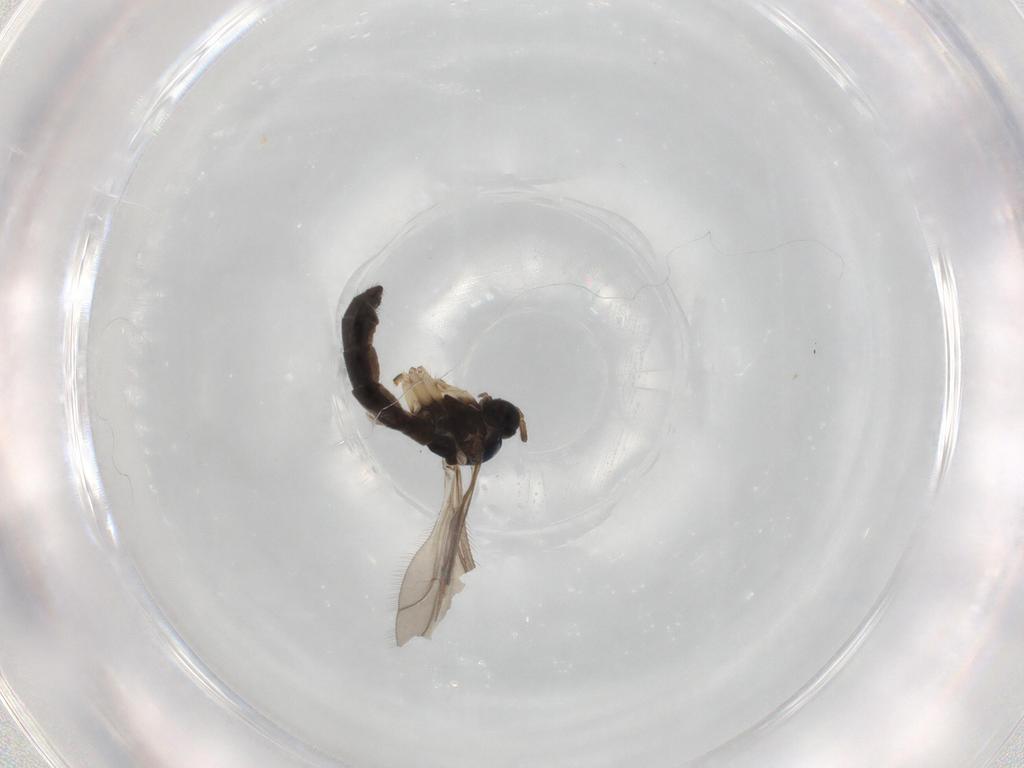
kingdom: Animalia
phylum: Arthropoda
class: Insecta
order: Diptera
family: Sciaridae
